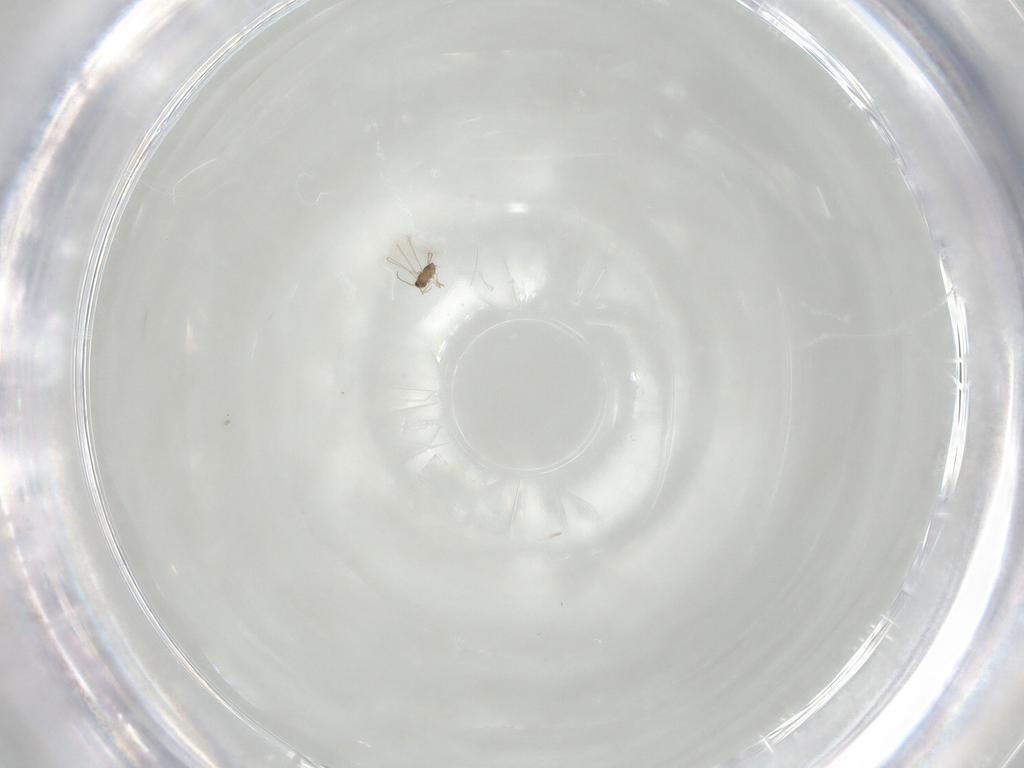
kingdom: Animalia
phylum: Arthropoda
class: Insecta
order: Hymenoptera
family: Mymaridae
